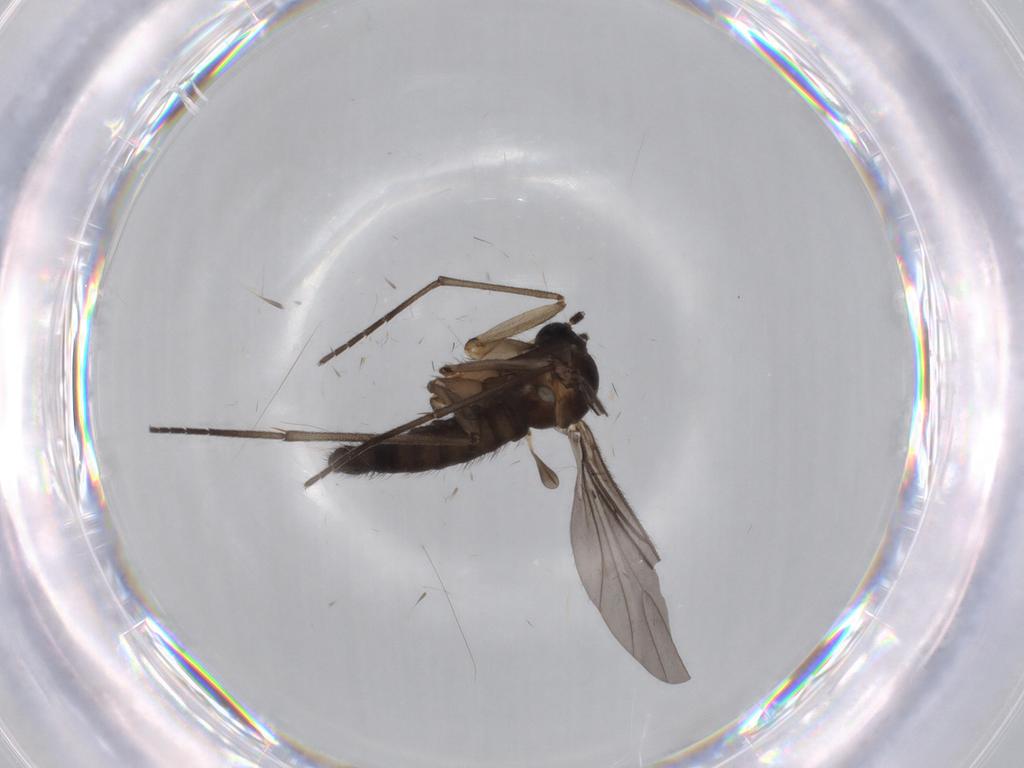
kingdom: Animalia
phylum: Arthropoda
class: Insecta
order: Diptera
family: Sciaridae
